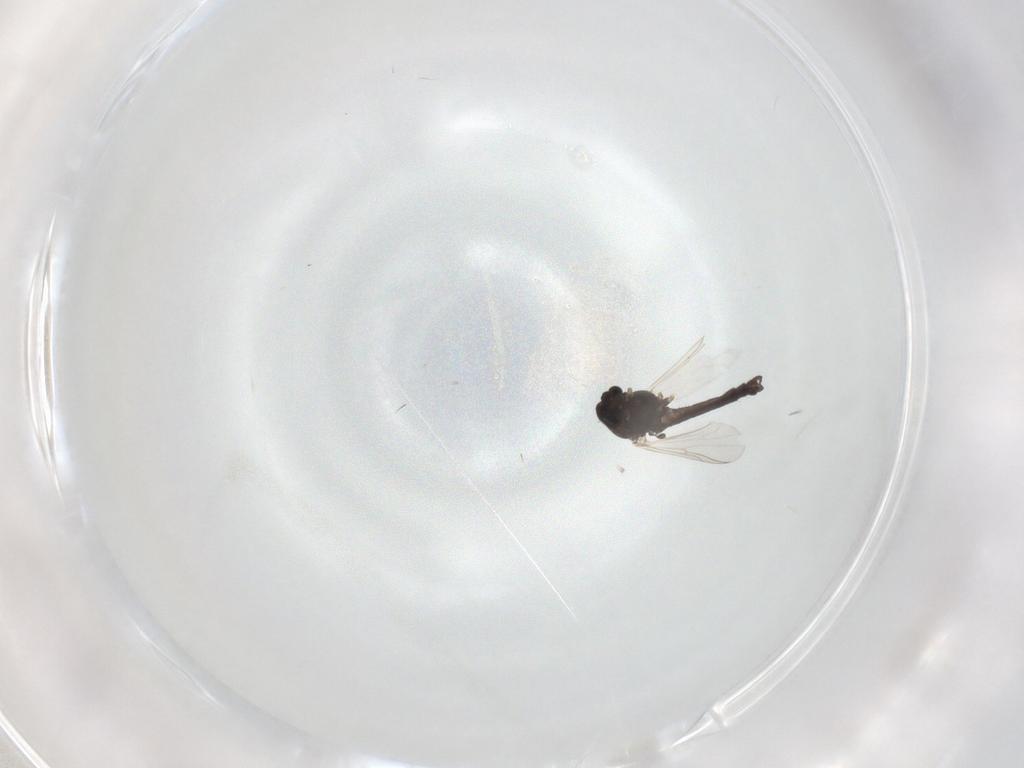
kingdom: Animalia
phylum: Arthropoda
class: Insecta
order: Diptera
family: Chironomidae
